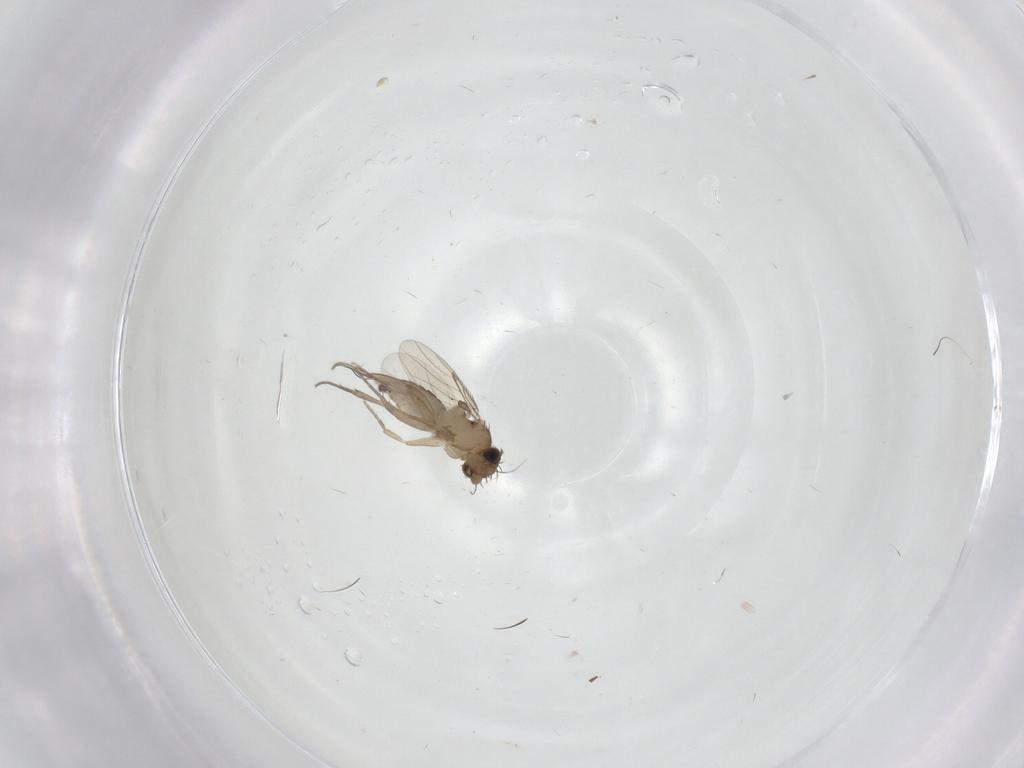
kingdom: Animalia
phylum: Arthropoda
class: Insecta
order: Diptera
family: Phoridae
